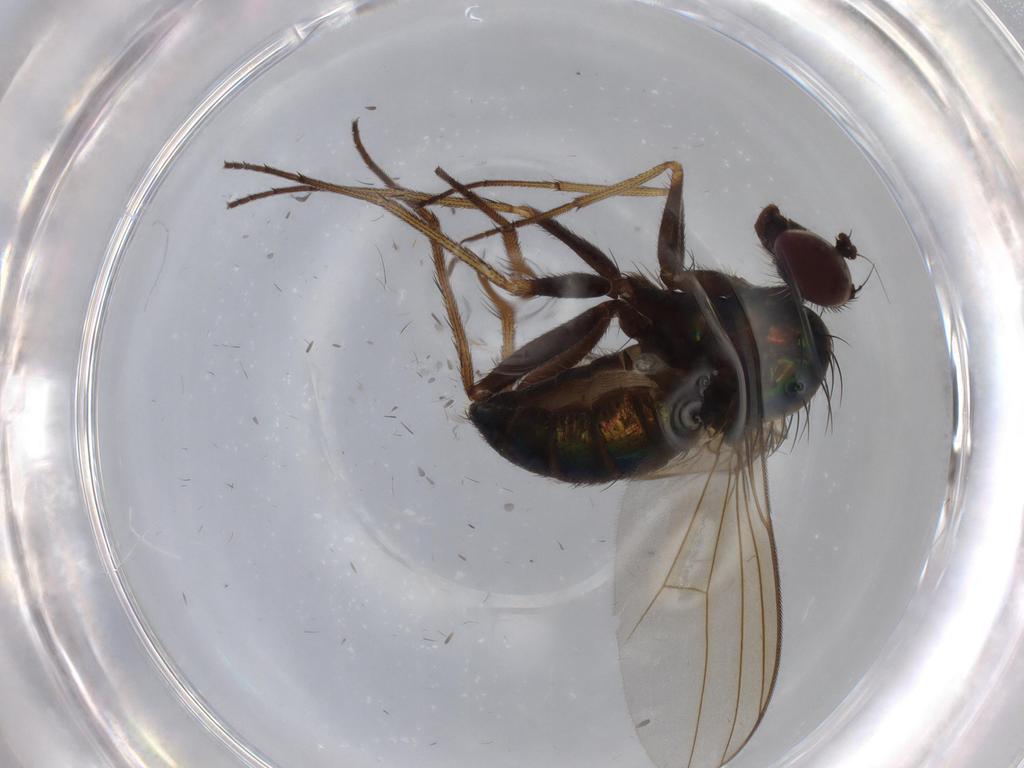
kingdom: Animalia
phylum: Arthropoda
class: Insecta
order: Diptera
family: Dolichopodidae
